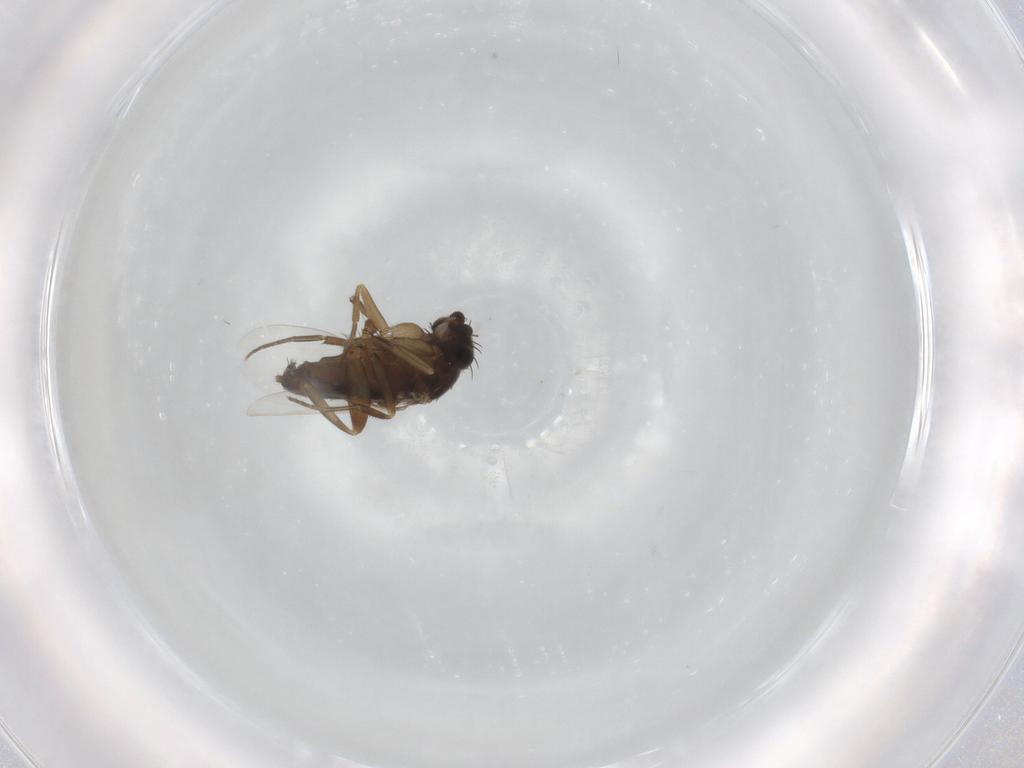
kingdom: Animalia
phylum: Arthropoda
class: Insecta
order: Diptera
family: Phoridae
